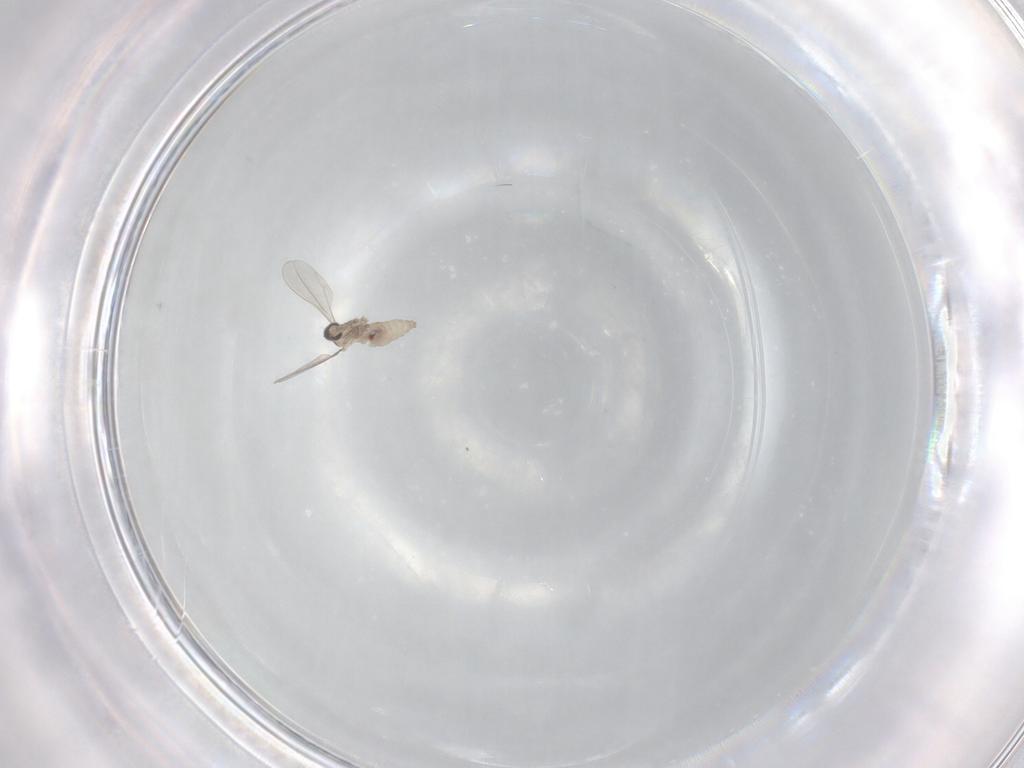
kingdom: Animalia
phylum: Arthropoda
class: Insecta
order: Diptera
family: Cecidomyiidae
